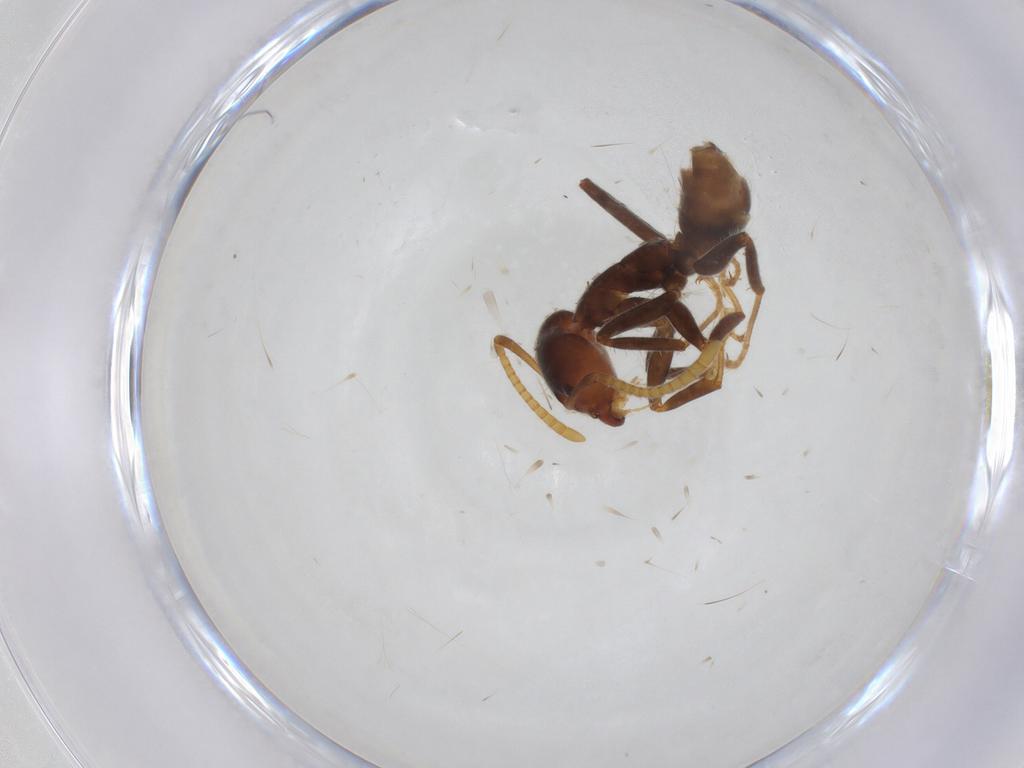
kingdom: Animalia
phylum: Arthropoda
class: Insecta
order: Hymenoptera
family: Scelionidae
